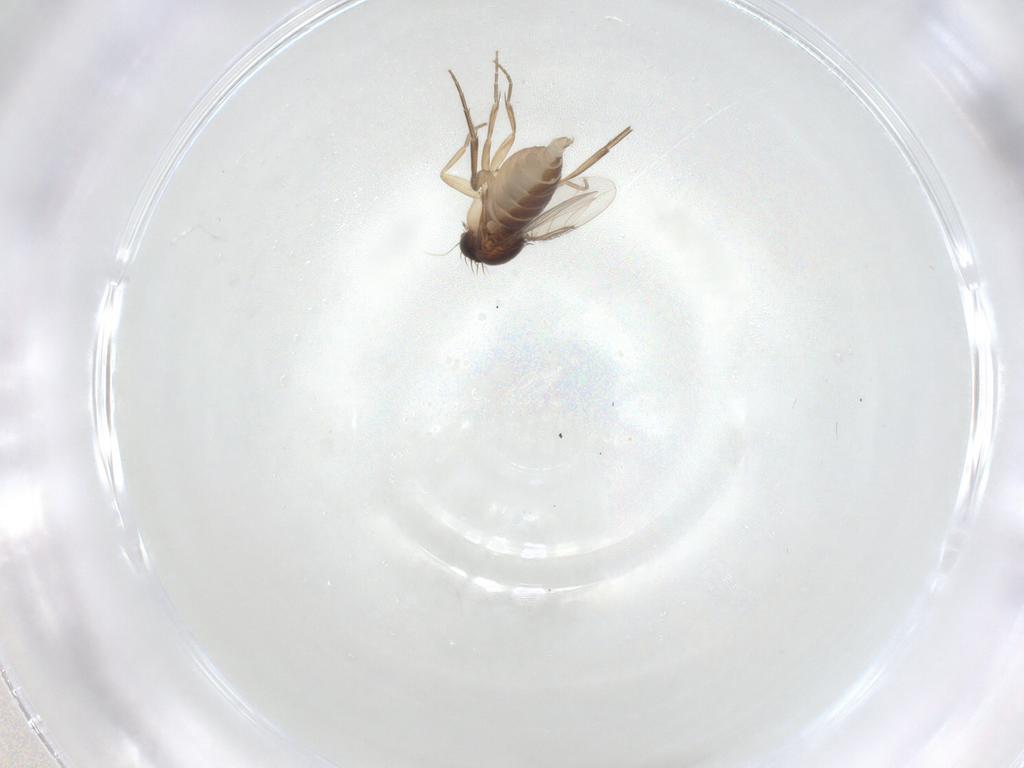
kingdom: Animalia
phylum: Arthropoda
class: Insecta
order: Diptera
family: Phoridae
